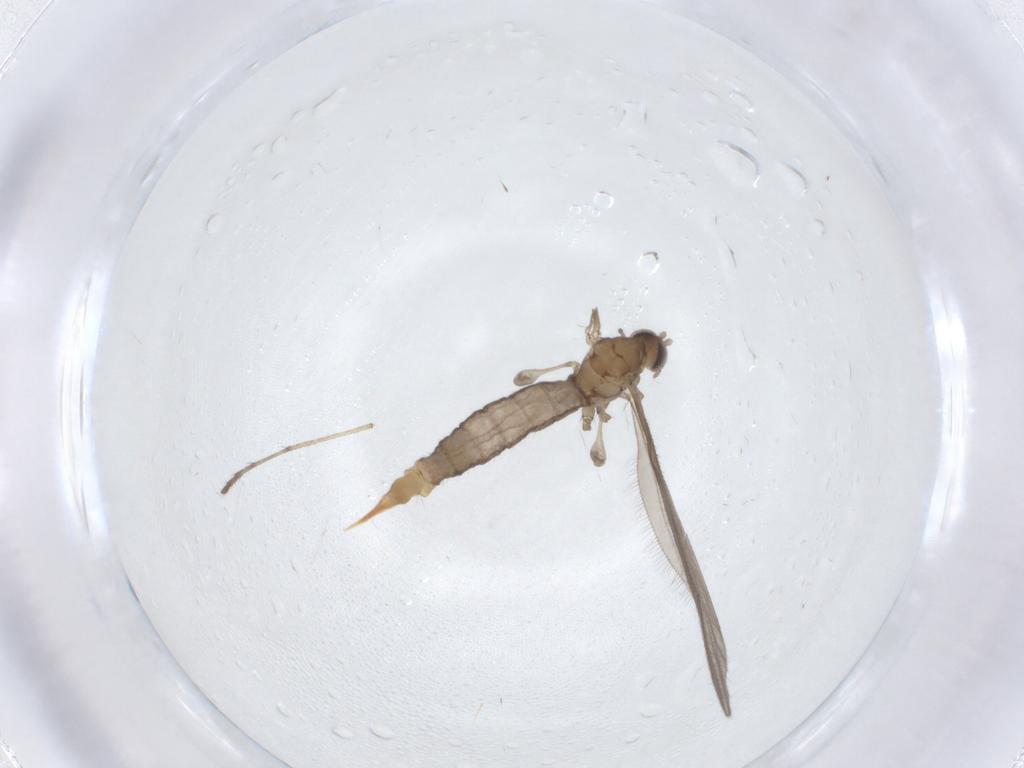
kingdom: Animalia
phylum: Arthropoda
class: Insecta
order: Diptera
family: Limoniidae
